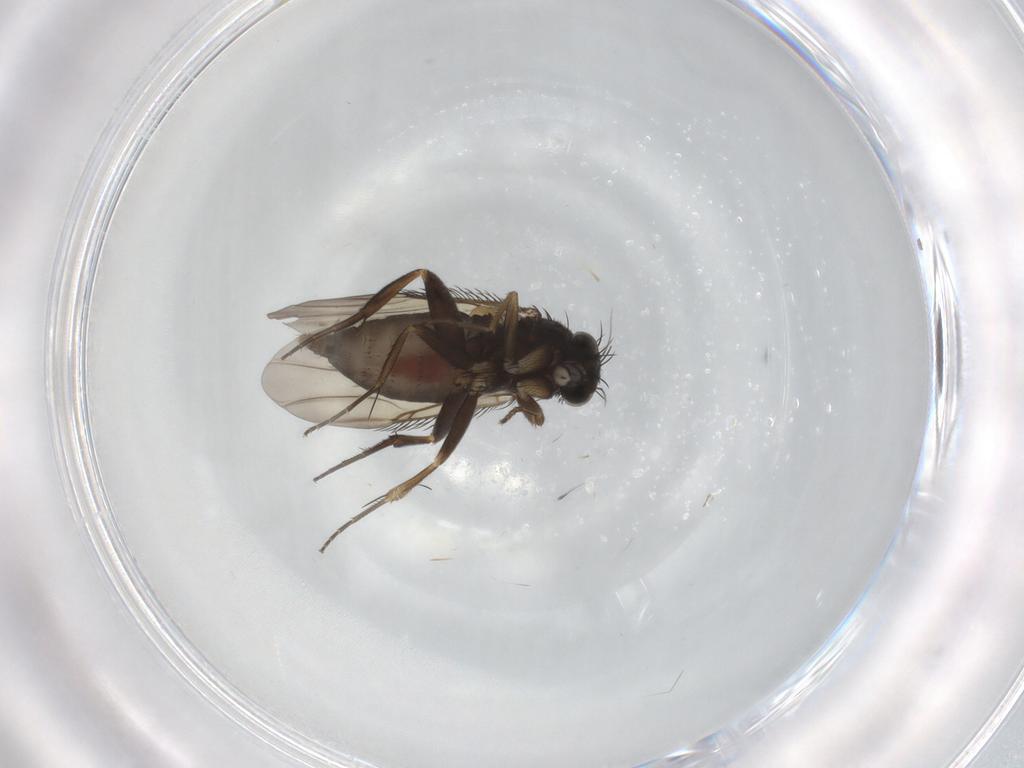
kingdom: Animalia
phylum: Arthropoda
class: Insecta
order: Diptera
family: Phoridae
